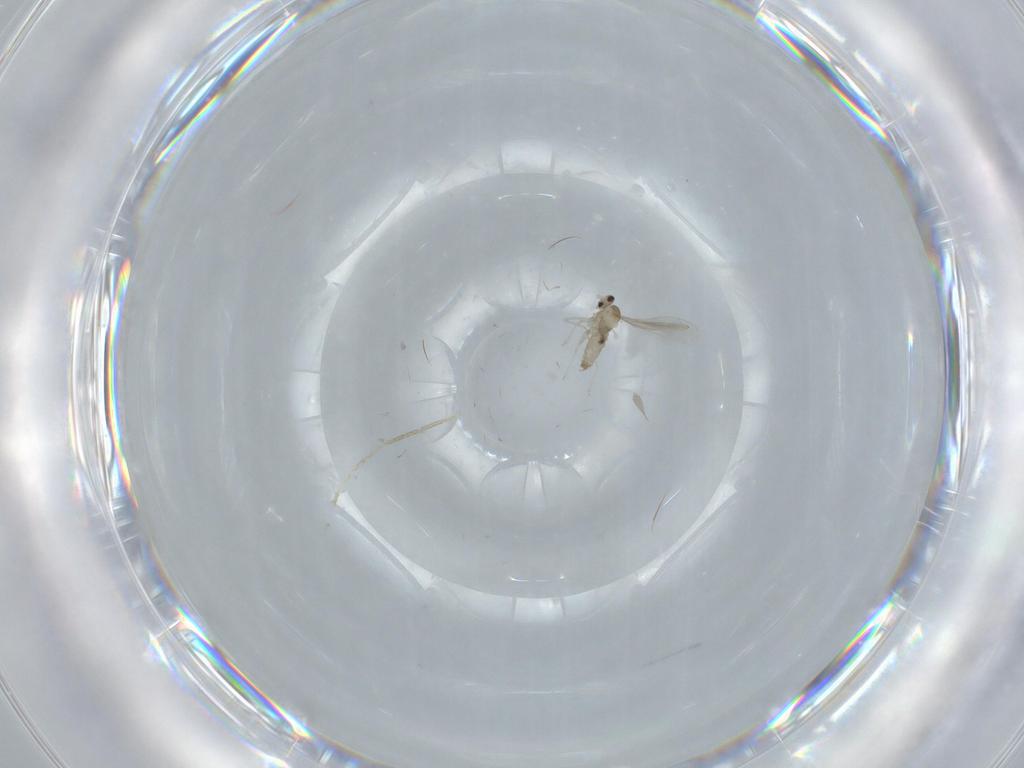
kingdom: Animalia
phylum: Arthropoda
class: Insecta
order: Diptera
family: Cecidomyiidae
